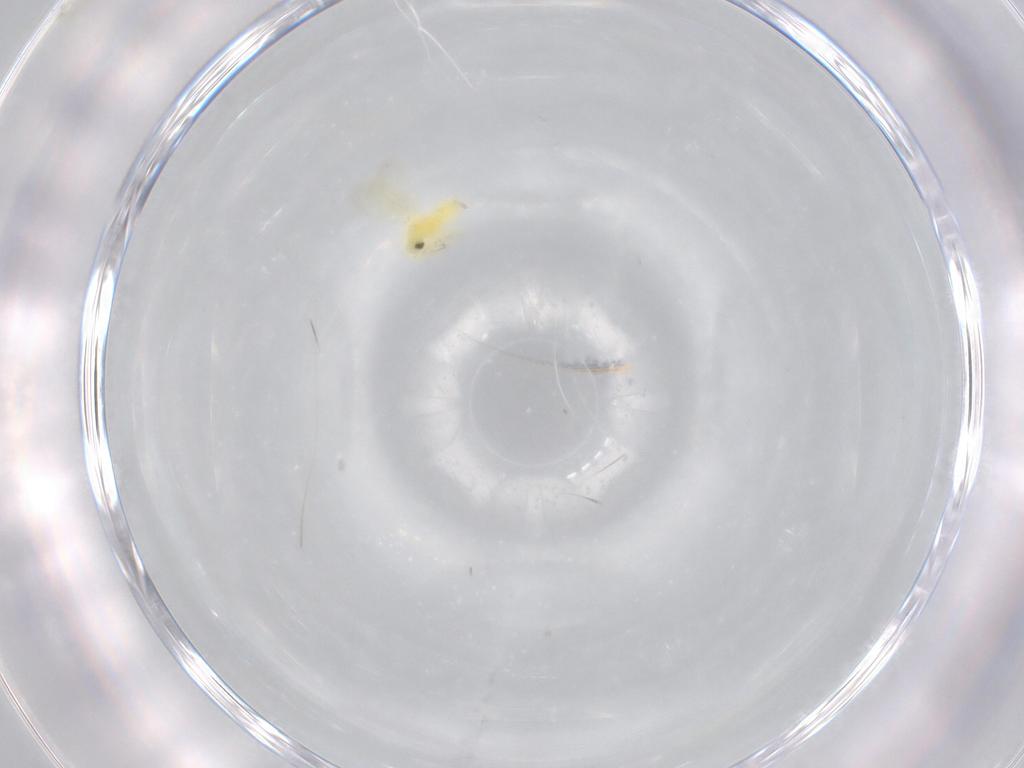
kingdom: Animalia
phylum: Arthropoda
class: Insecta
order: Hemiptera
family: Aleyrodidae
